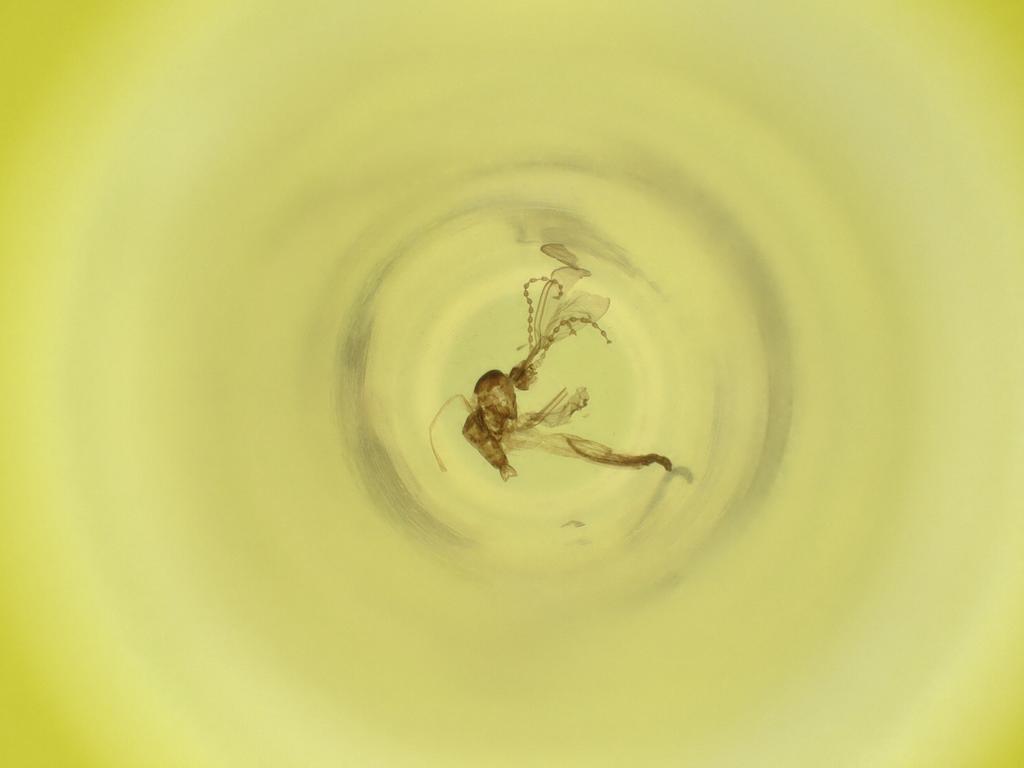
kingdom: Animalia
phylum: Arthropoda
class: Insecta
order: Diptera
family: Cecidomyiidae
